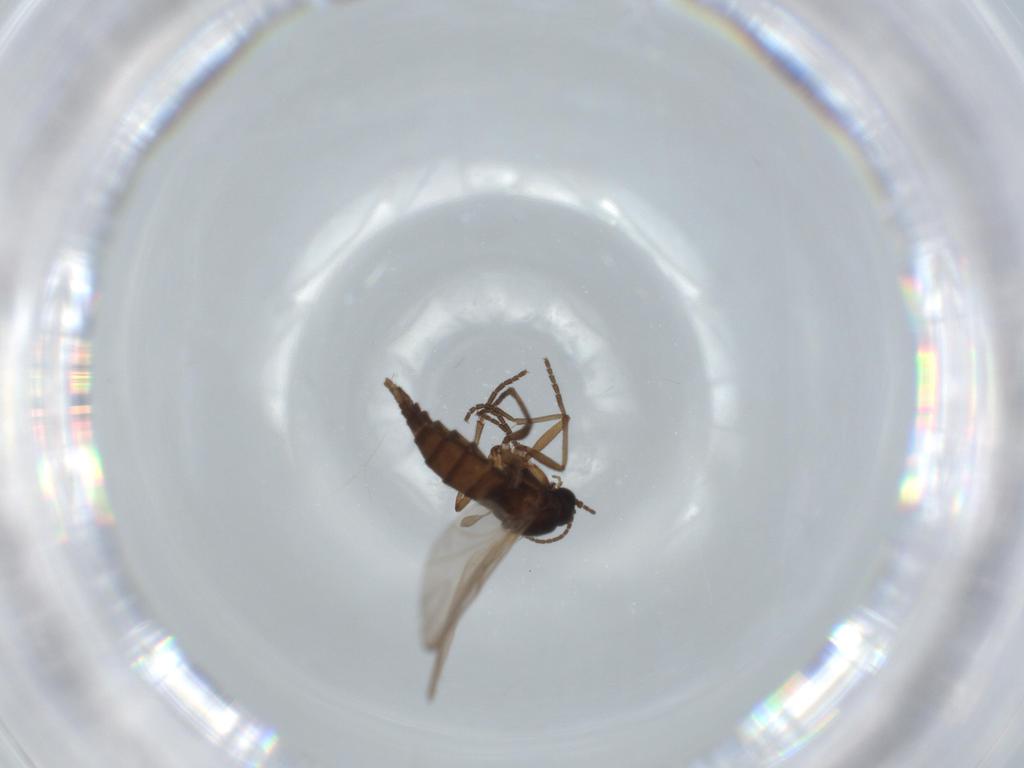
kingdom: Animalia
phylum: Arthropoda
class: Insecta
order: Diptera
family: Sciaridae
